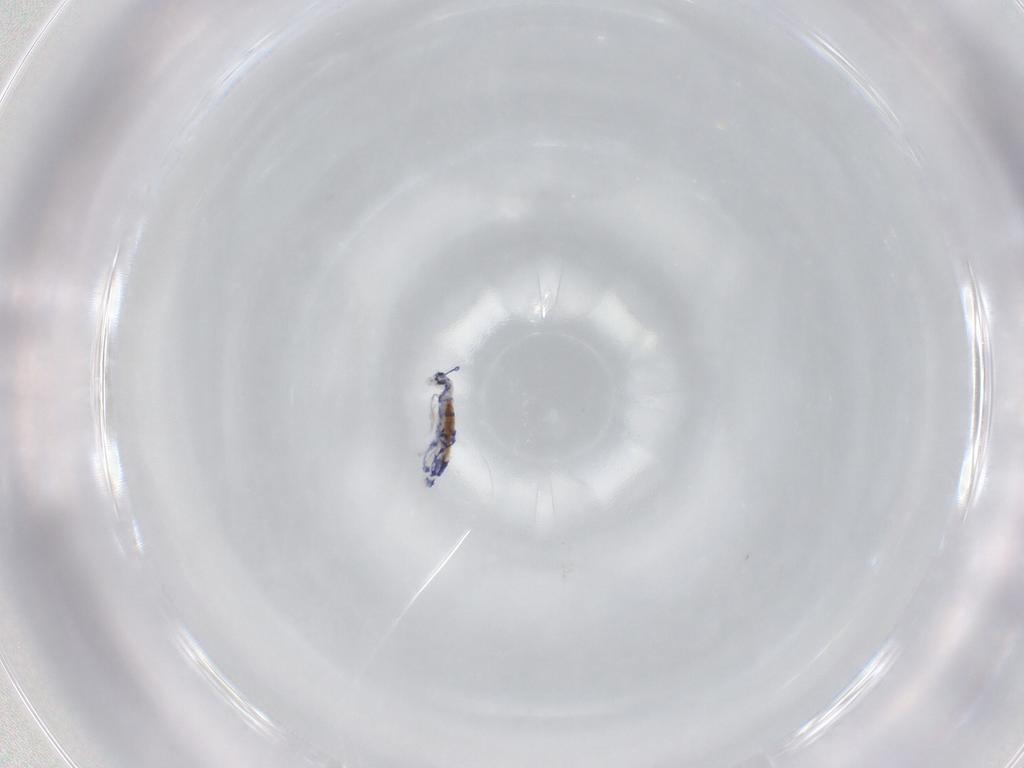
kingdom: Animalia
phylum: Arthropoda
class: Collembola
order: Entomobryomorpha
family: Entomobryidae
